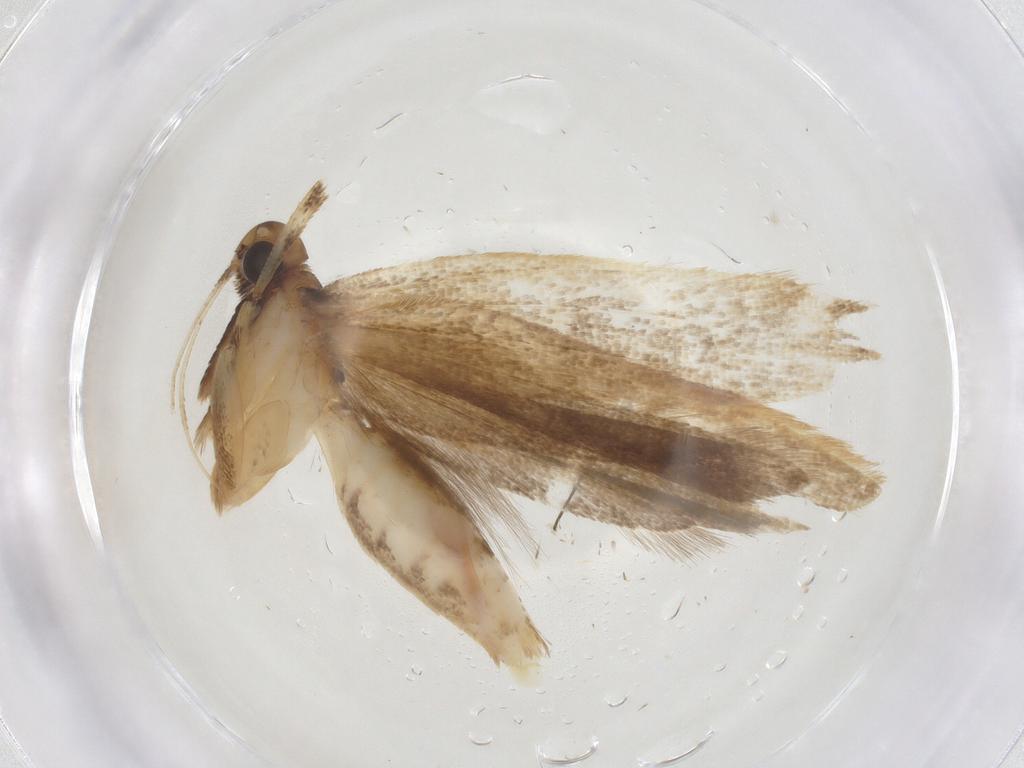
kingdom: Animalia
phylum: Arthropoda
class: Insecta
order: Lepidoptera
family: Gelechiidae
